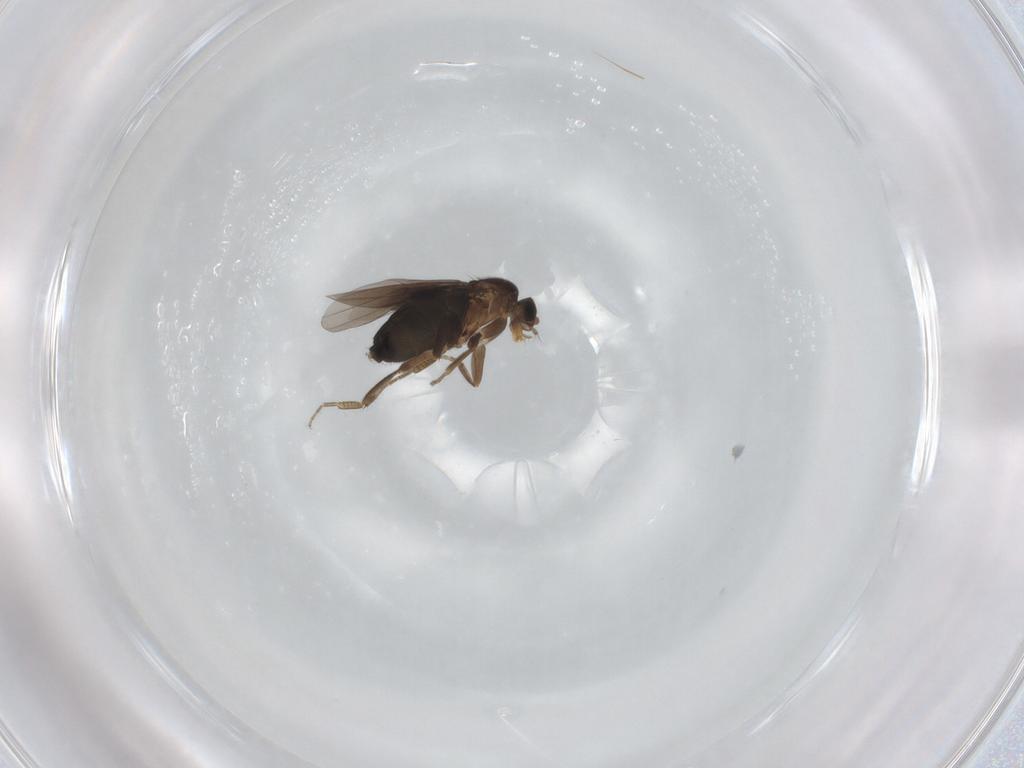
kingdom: Animalia
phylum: Arthropoda
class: Insecta
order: Diptera
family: Phoridae
